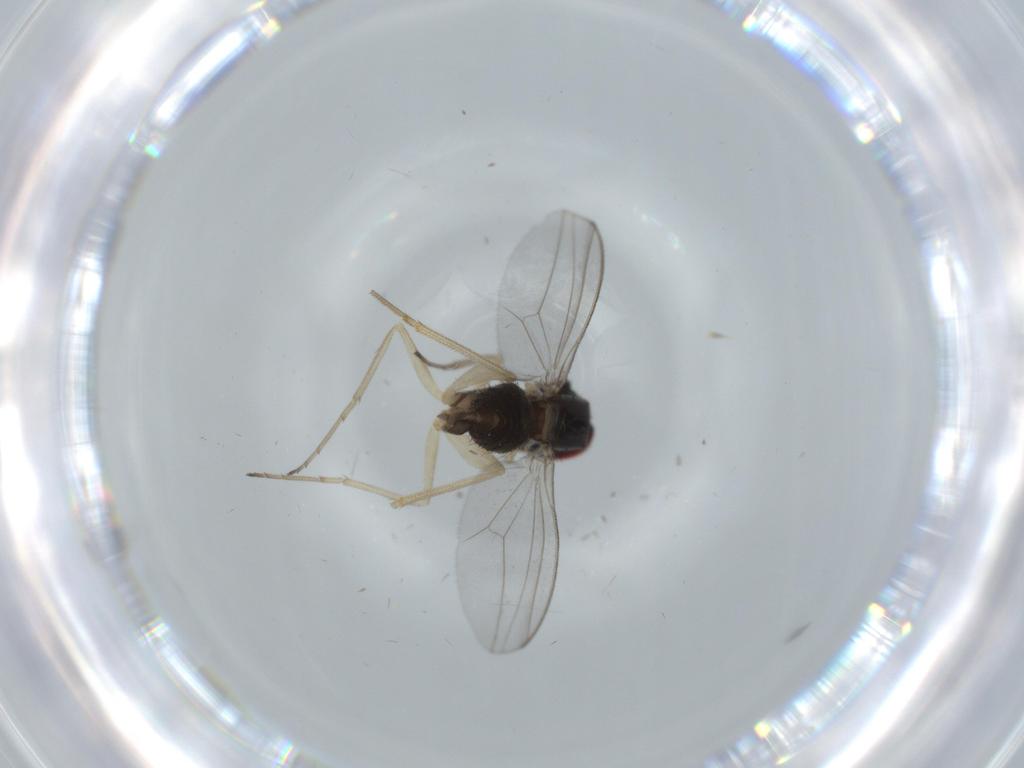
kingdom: Animalia
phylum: Arthropoda
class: Insecta
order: Diptera
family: Dolichopodidae
